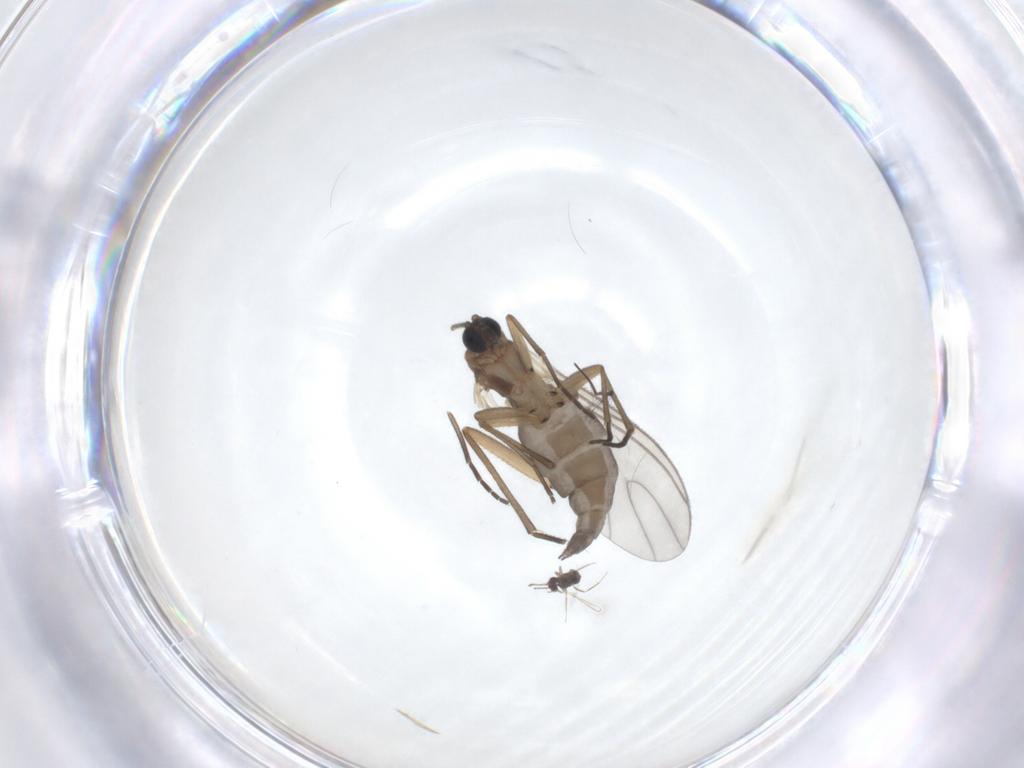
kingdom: Animalia
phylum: Arthropoda
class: Insecta
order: Diptera
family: Sciaridae
